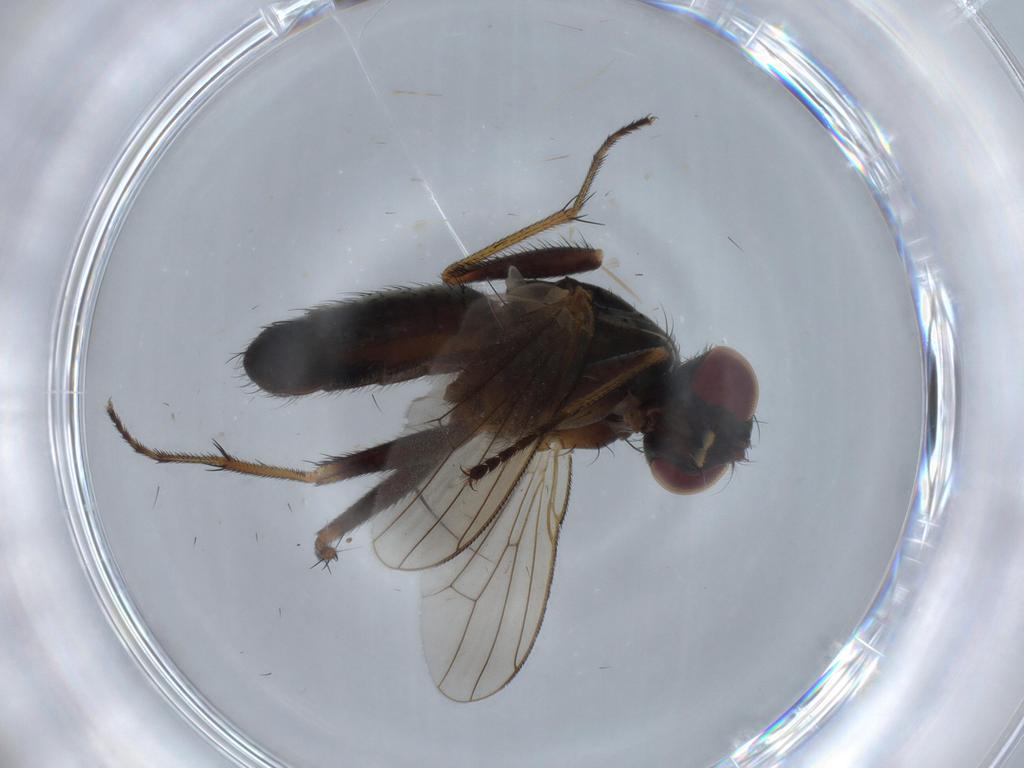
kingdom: Animalia
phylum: Arthropoda
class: Insecta
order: Diptera
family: Muscidae
